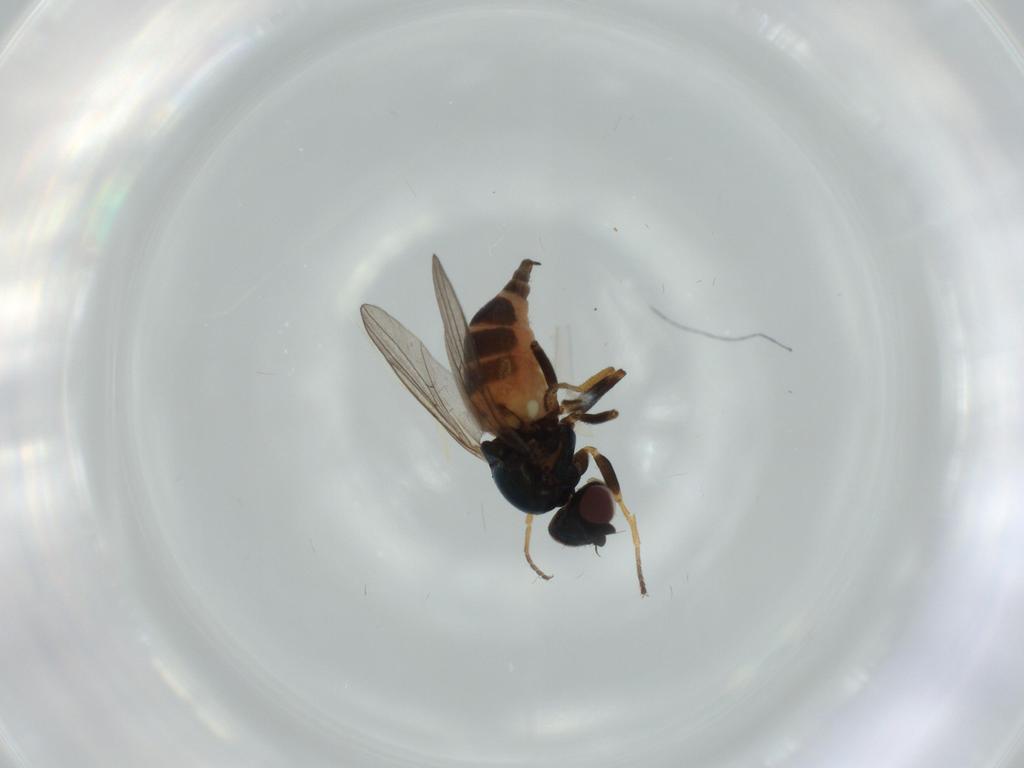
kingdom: Animalia
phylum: Arthropoda
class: Insecta
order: Diptera
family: Chloropidae
